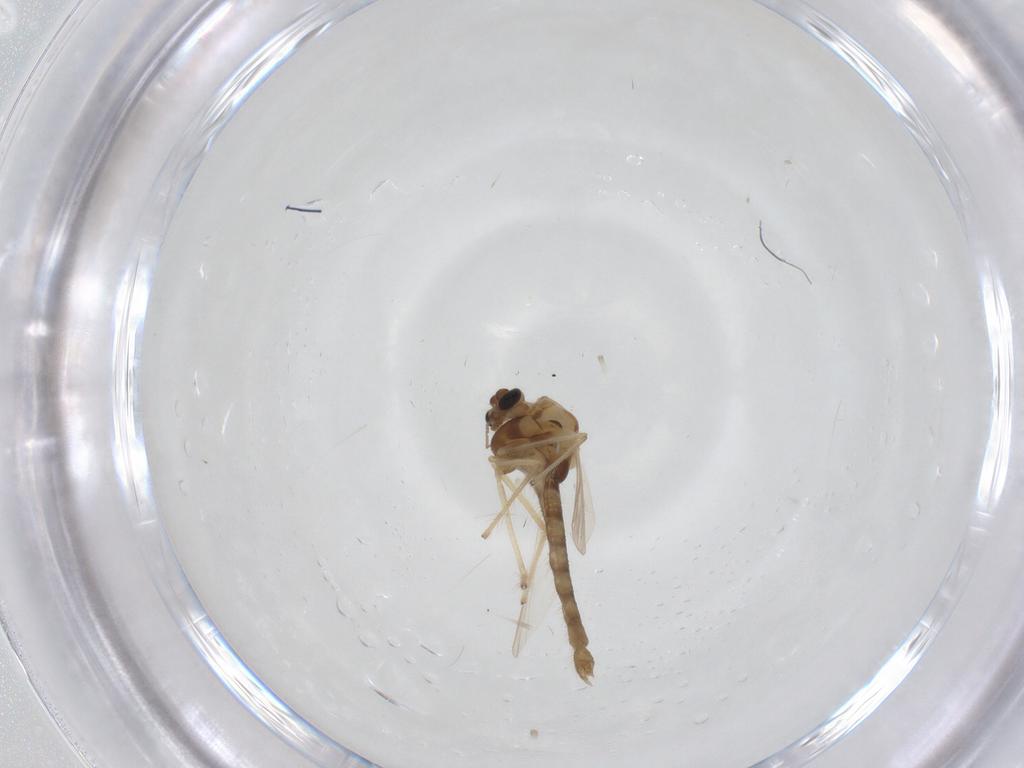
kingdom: Animalia
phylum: Arthropoda
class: Insecta
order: Diptera
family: Chironomidae
